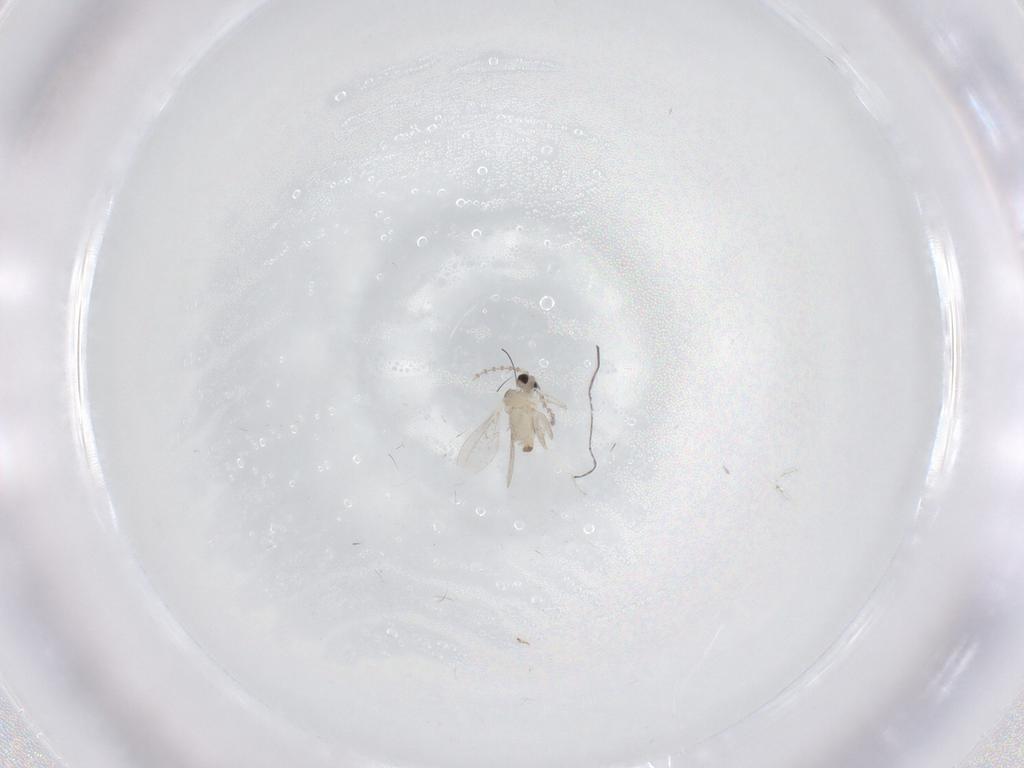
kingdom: Animalia
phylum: Arthropoda
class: Insecta
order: Diptera
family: Cecidomyiidae
